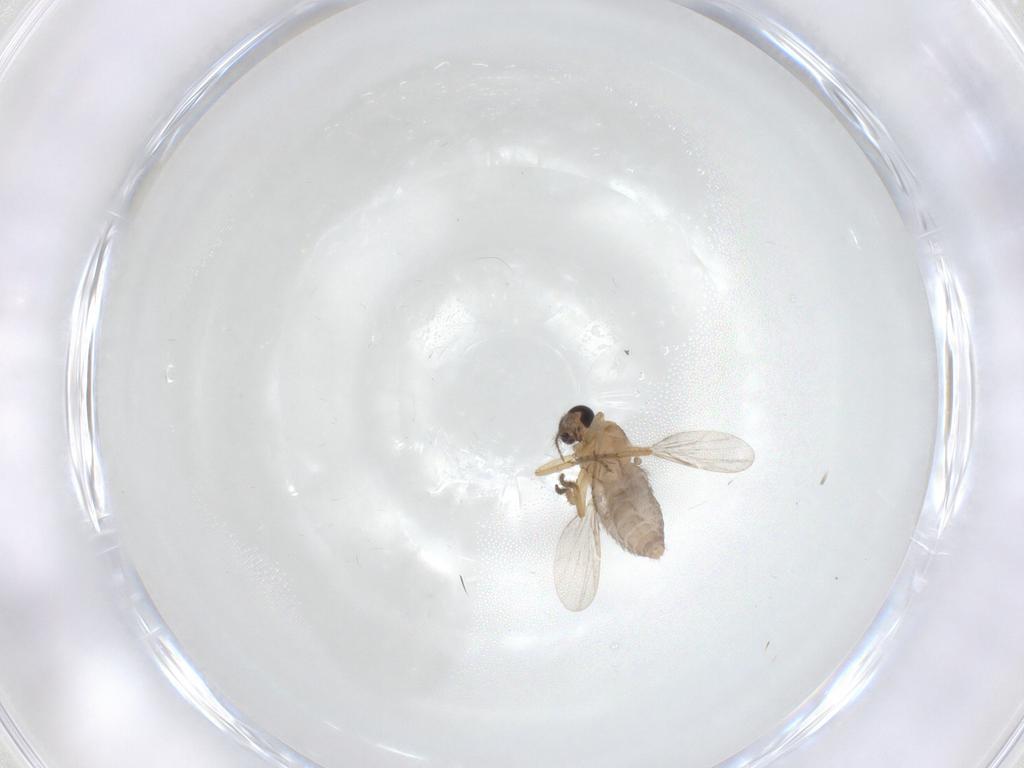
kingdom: Animalia
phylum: Arthropoda
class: Insecta
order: Diptera
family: Ceratopogonidae
